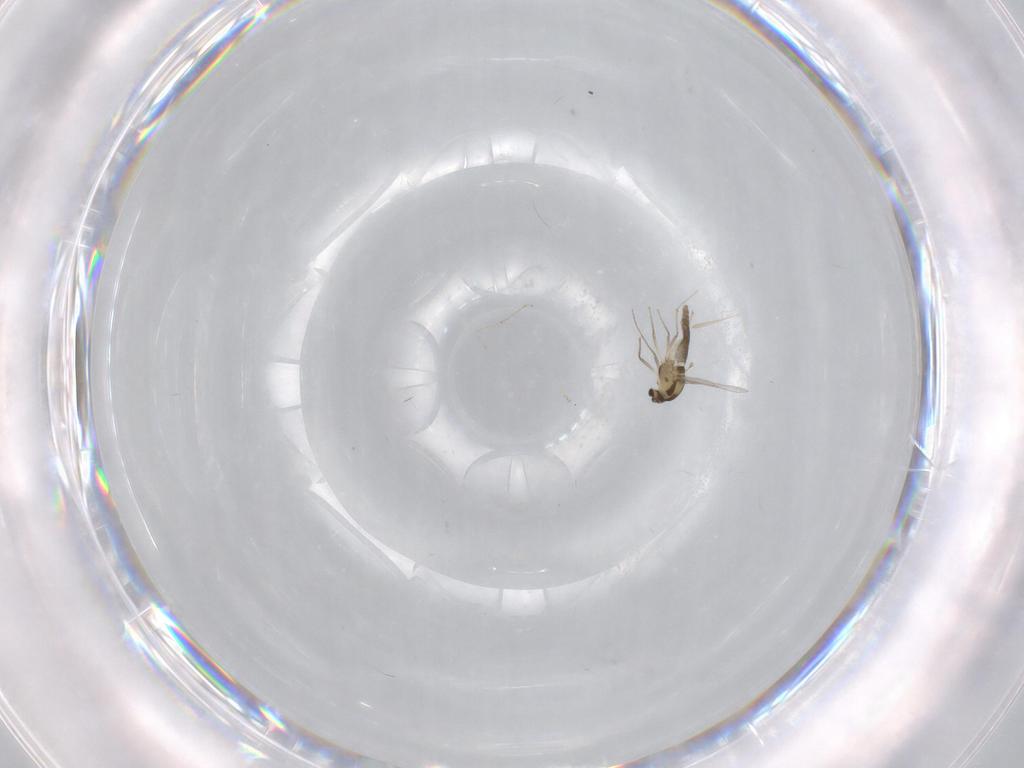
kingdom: Animalia
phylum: Arthropoda
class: Insecta
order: Diptera
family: Chironomidae
